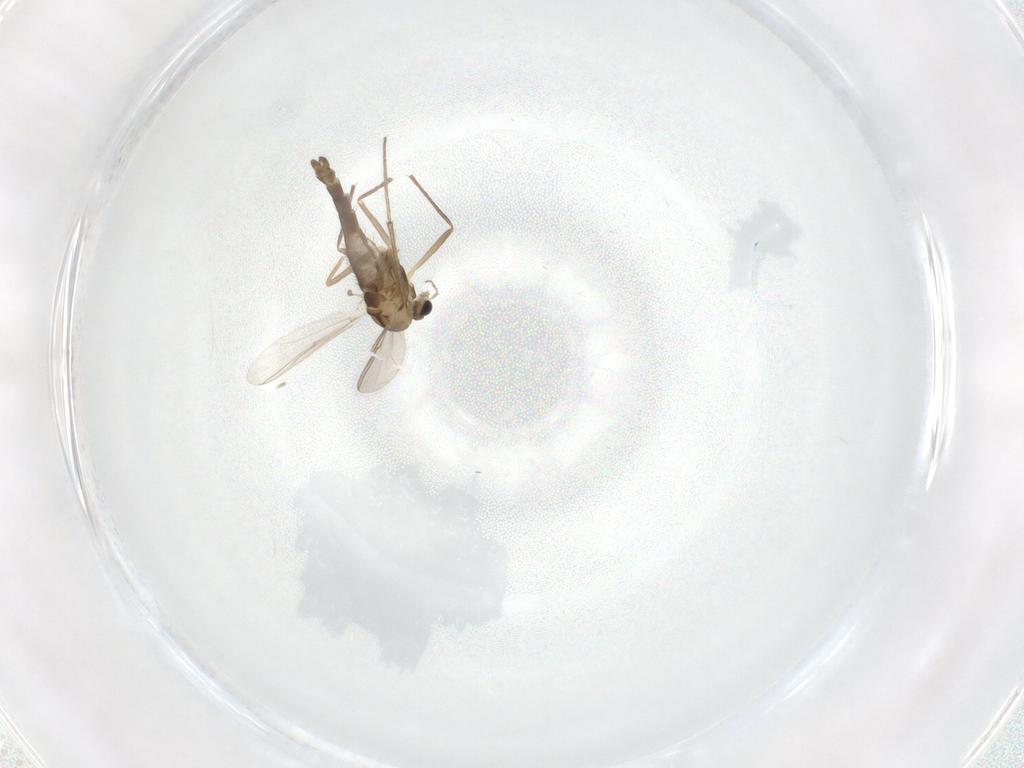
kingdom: Animalia
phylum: Arthropoda
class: Insecta
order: Diptera
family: Chironomidae
